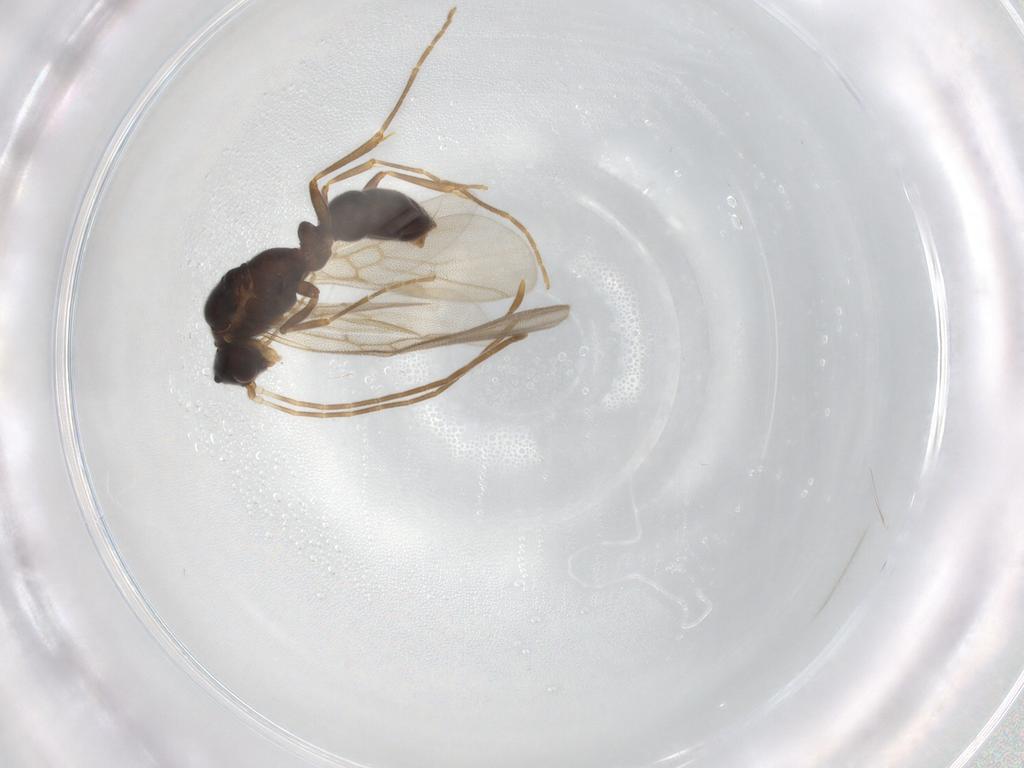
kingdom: Animalia
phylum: Arthropoda
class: Insecta
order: Hymenoptera
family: Formicidae
